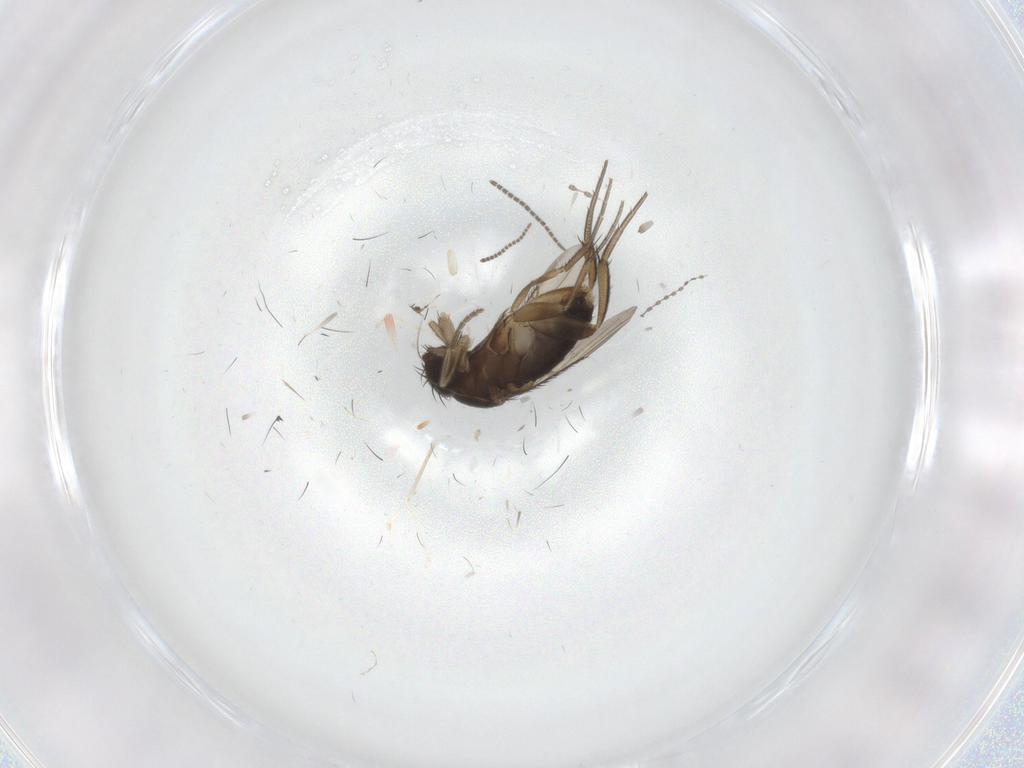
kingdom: Animalia
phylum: Arthropoda
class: Insecta
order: Diptera
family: Phoridae
